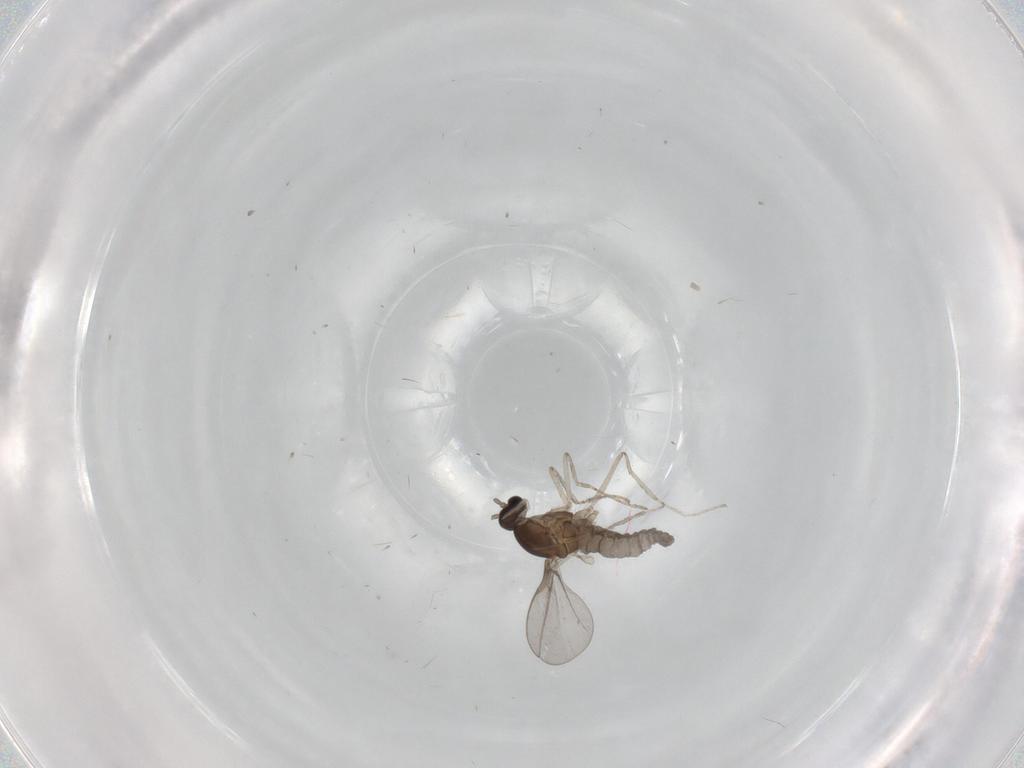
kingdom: Animalia
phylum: Arthropoda
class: Insecta
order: Diptera
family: Cecidomyiidae
